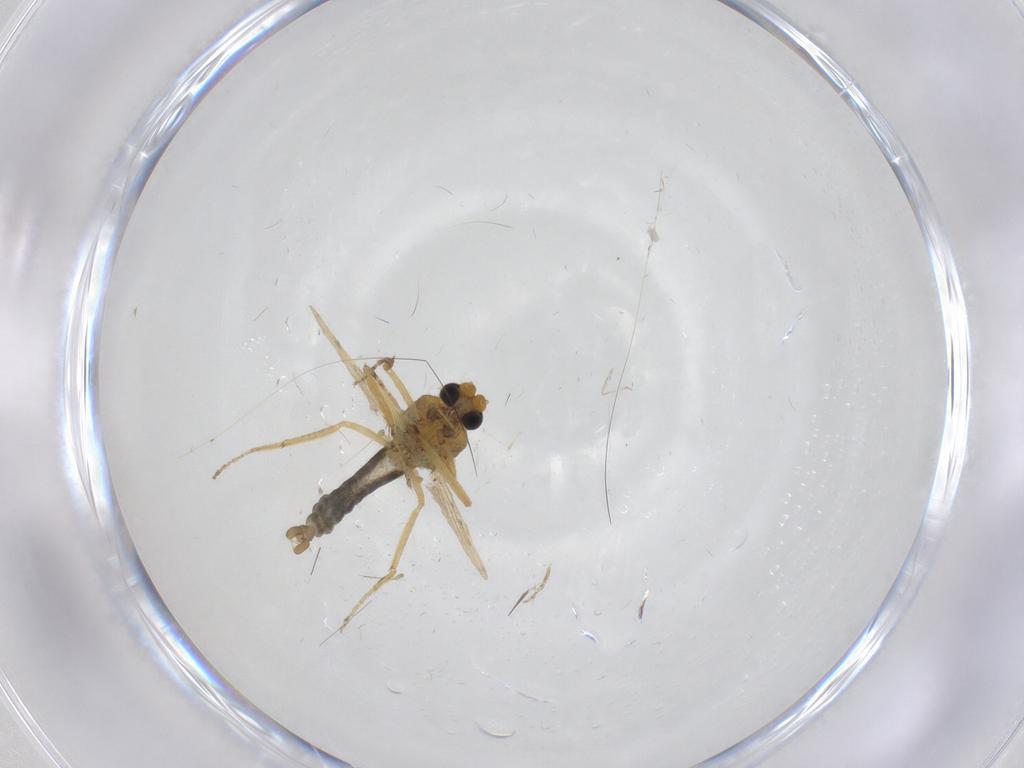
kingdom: Animalia
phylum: Arthropoda
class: Insecta
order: Diptera
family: Ceratopogonidae
